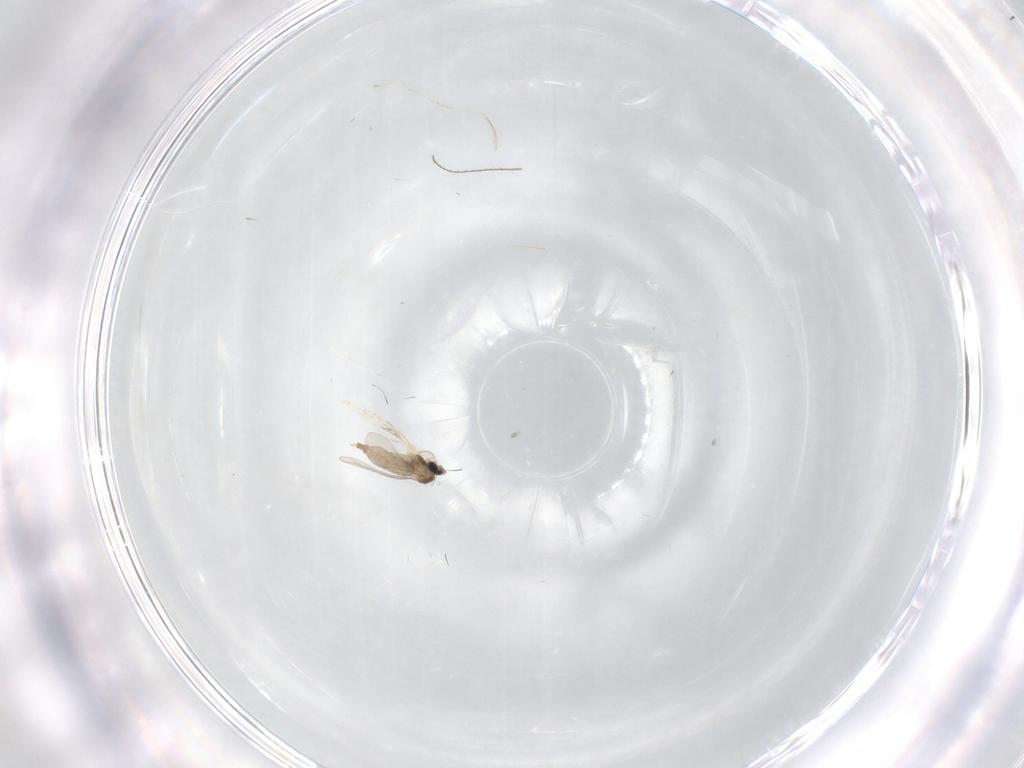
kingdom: Animalia
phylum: Arthropoda
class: Insecta
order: Diptera
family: Cecidomyiidae
